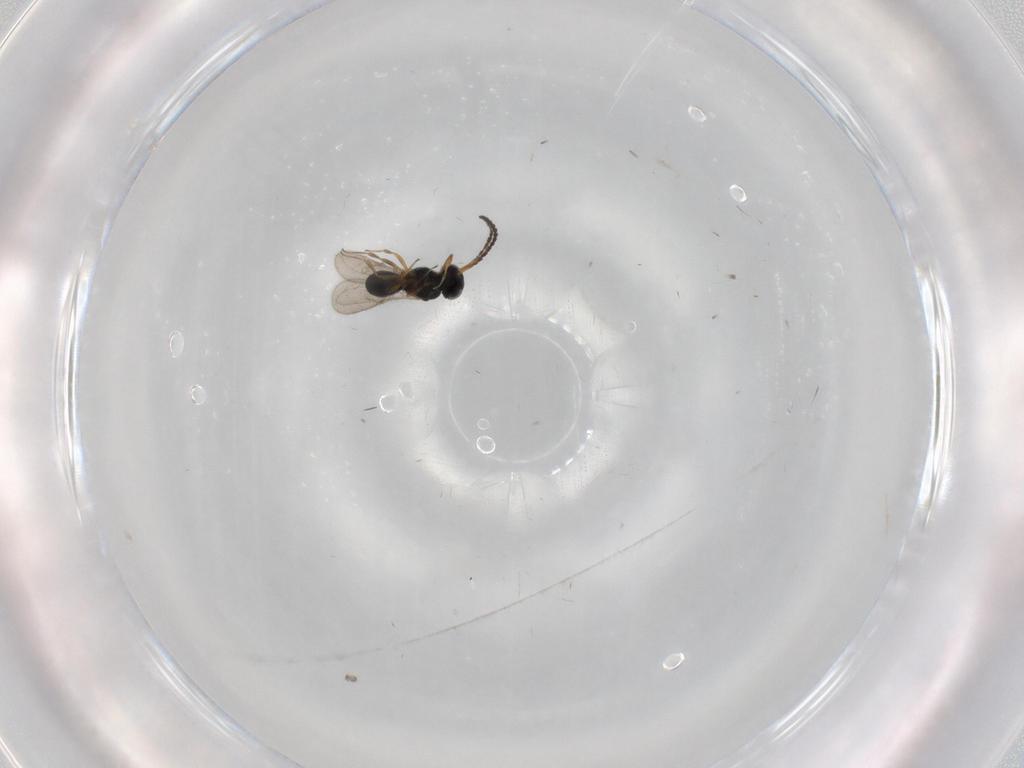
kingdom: Animalia
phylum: Arthropoda
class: Insecta
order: Hymenoptera
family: Scelionidae
